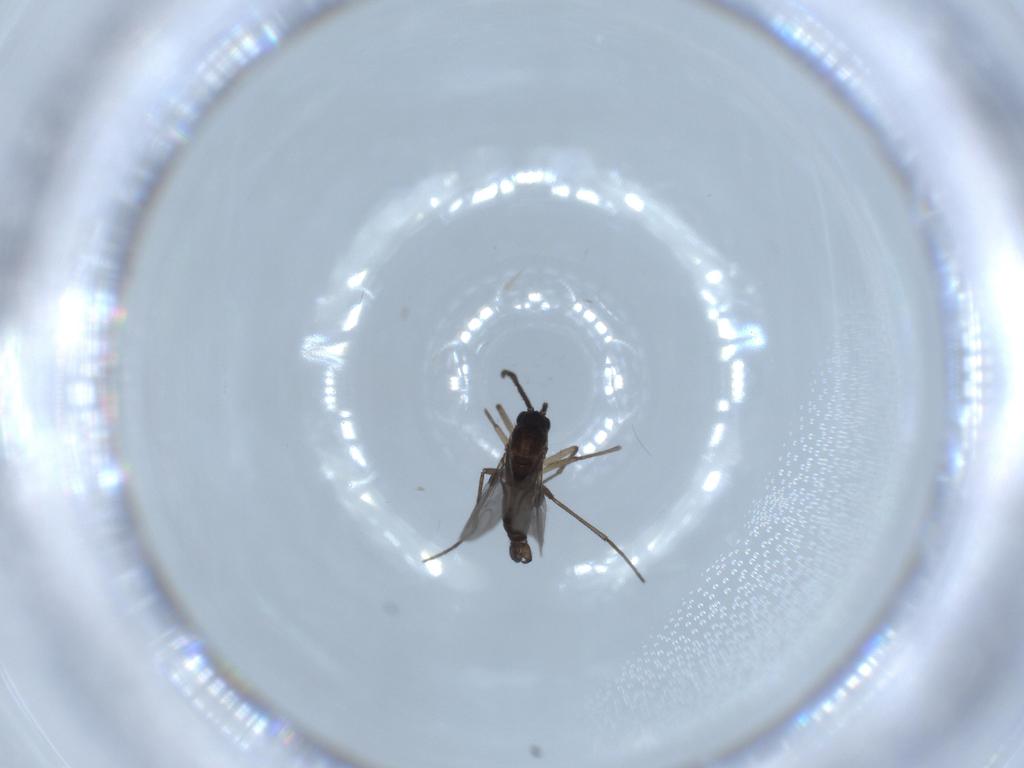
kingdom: Animalia
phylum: Arthropoda
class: Insecta
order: Diptera
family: Sciaridae
